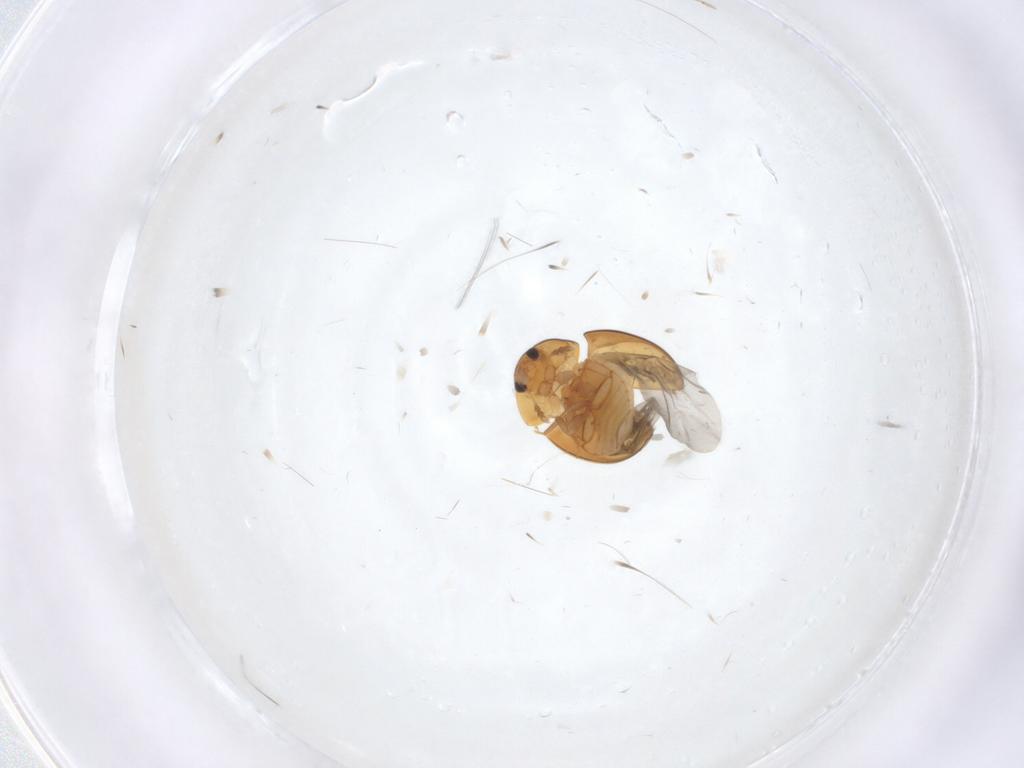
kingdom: Animalia
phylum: Arthropoda
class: Insecta
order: Coleoptera
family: Phalacridae
